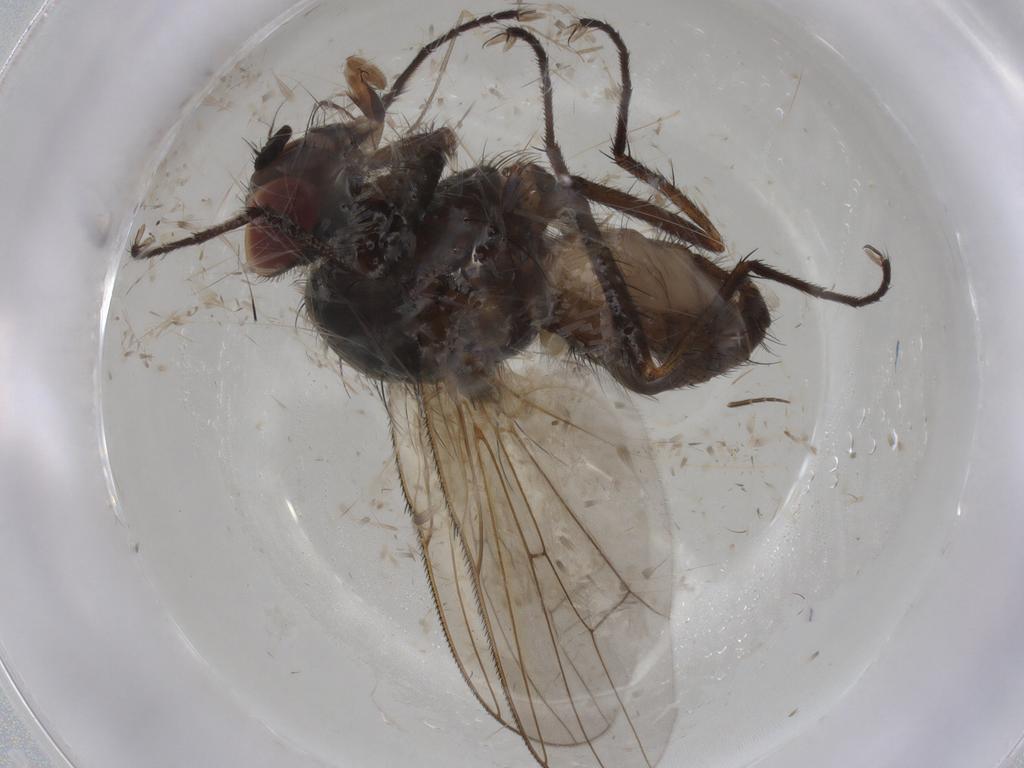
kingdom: Animalia
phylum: Arthropoda
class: Insecta
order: Diptera
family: Anthomyiidae
